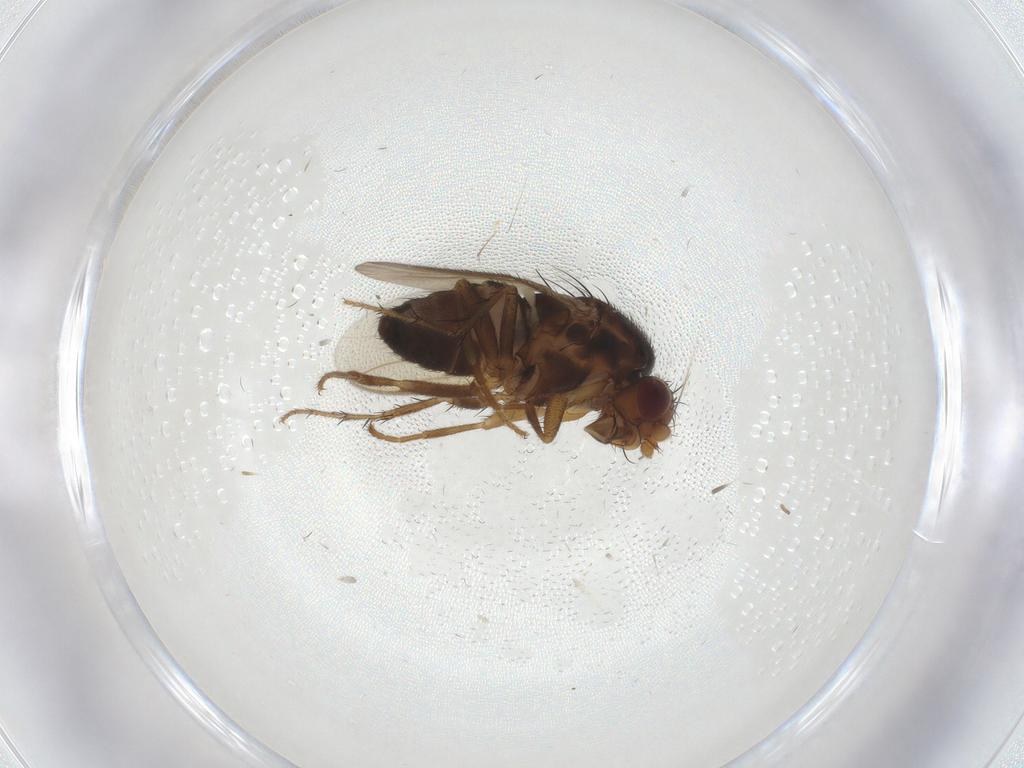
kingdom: Animalia
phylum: Arthropoda
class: Insecta
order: Diptera
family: Sphaeroceridae
